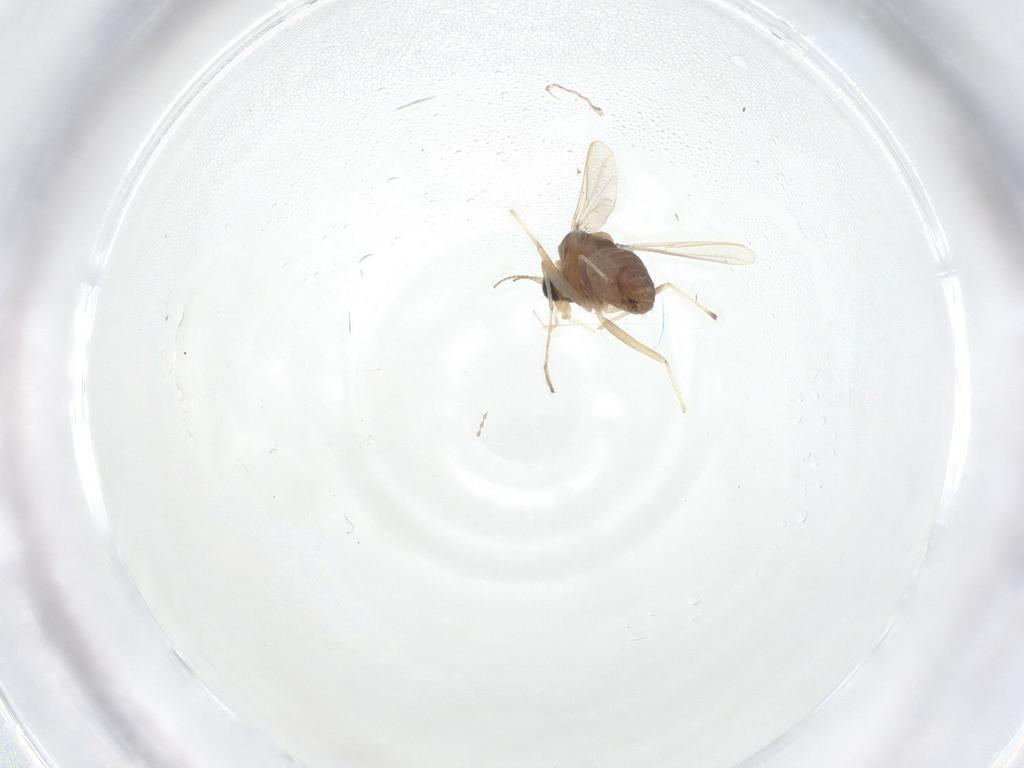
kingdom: Animalia
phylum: Arthropoda
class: Insecta
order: Diptera
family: Chironomidae
